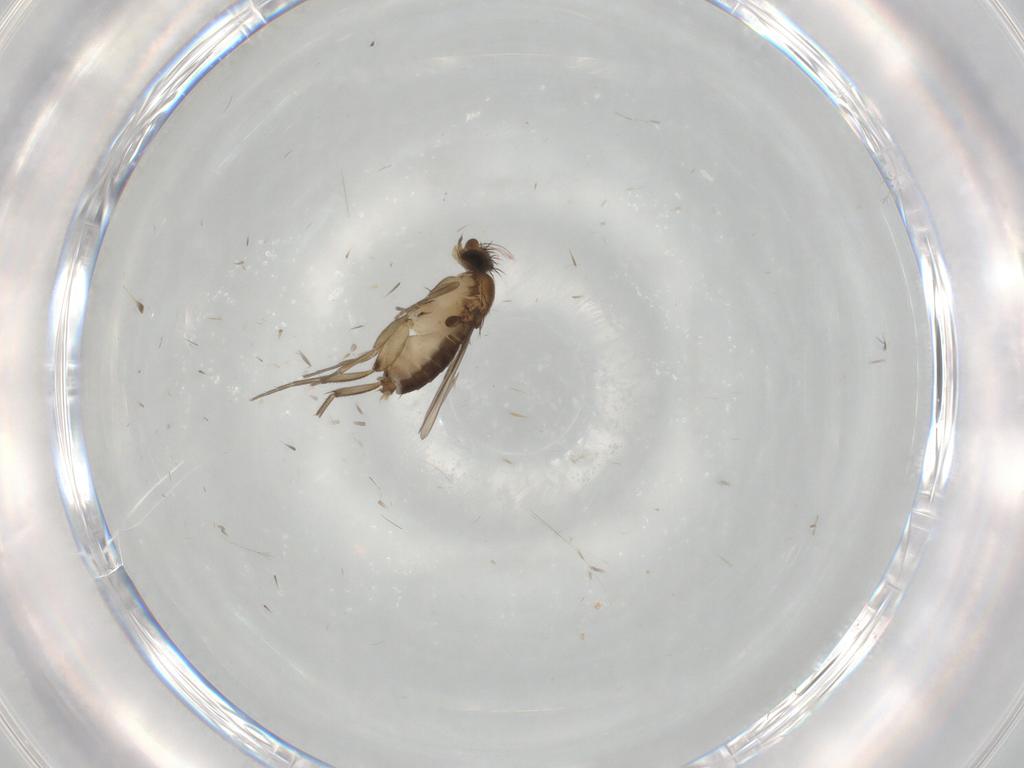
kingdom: Animalia
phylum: Arthropoda
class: Insecta
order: Diptera
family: Phoridae
